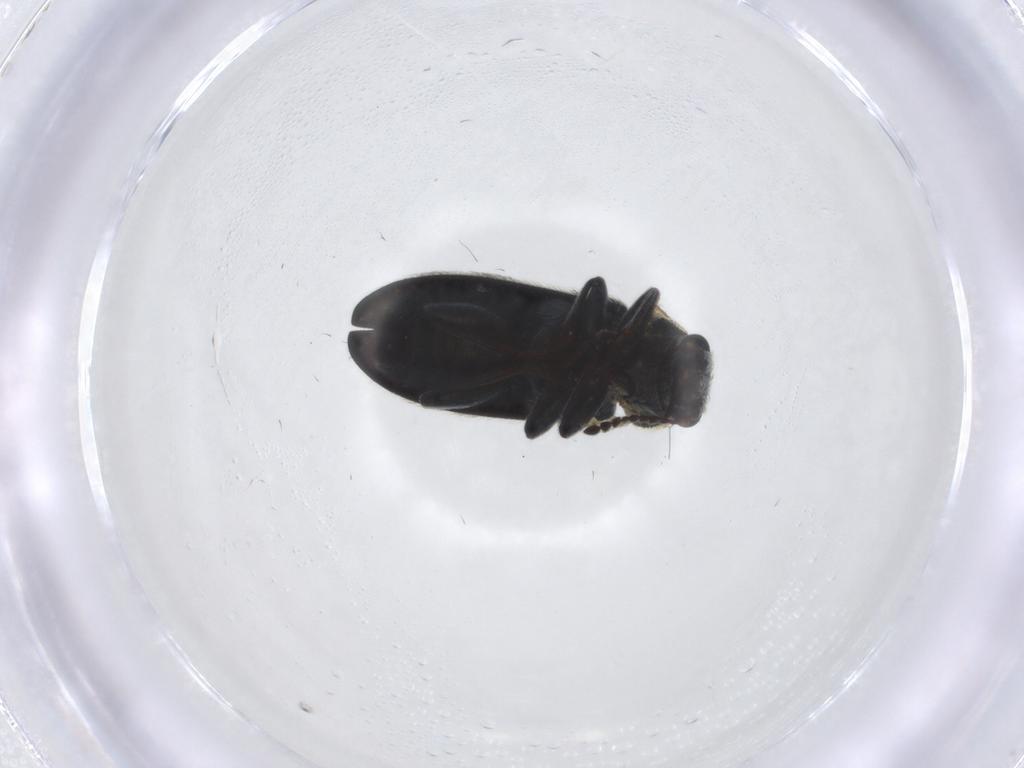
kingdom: Animalia
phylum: Arthropoda
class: Insecta
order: Coleoptera
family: Melyridae
